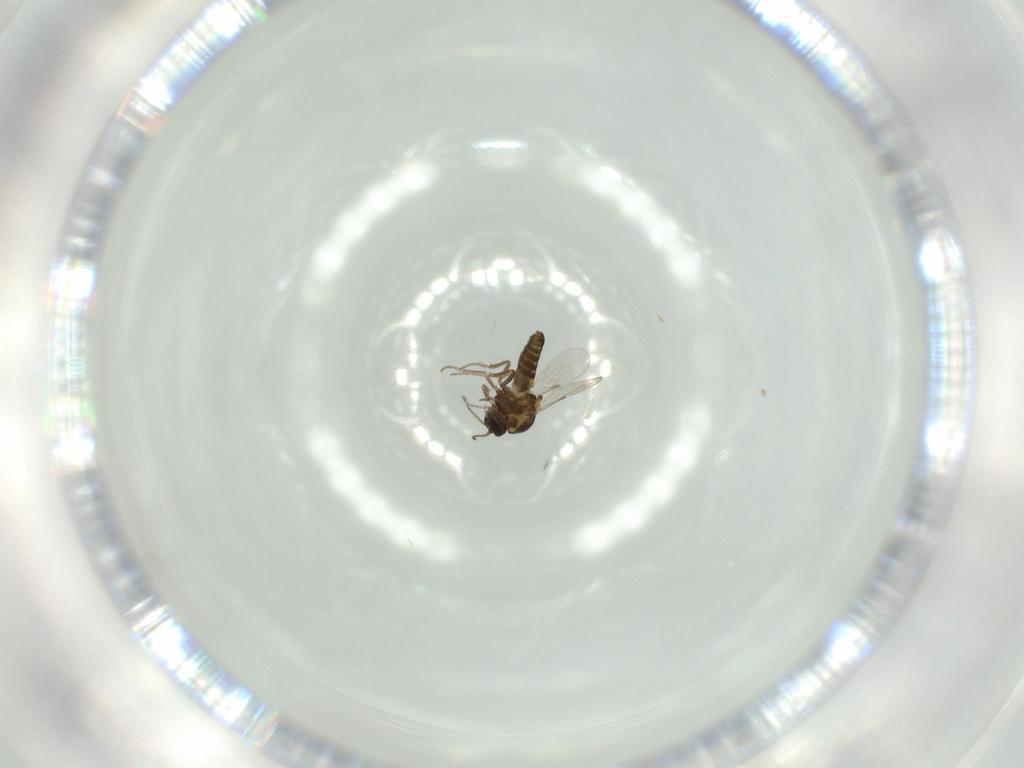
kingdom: Animalia
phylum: Arthropoda
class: Insecta
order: Diptera
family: Ceratopogonidae
